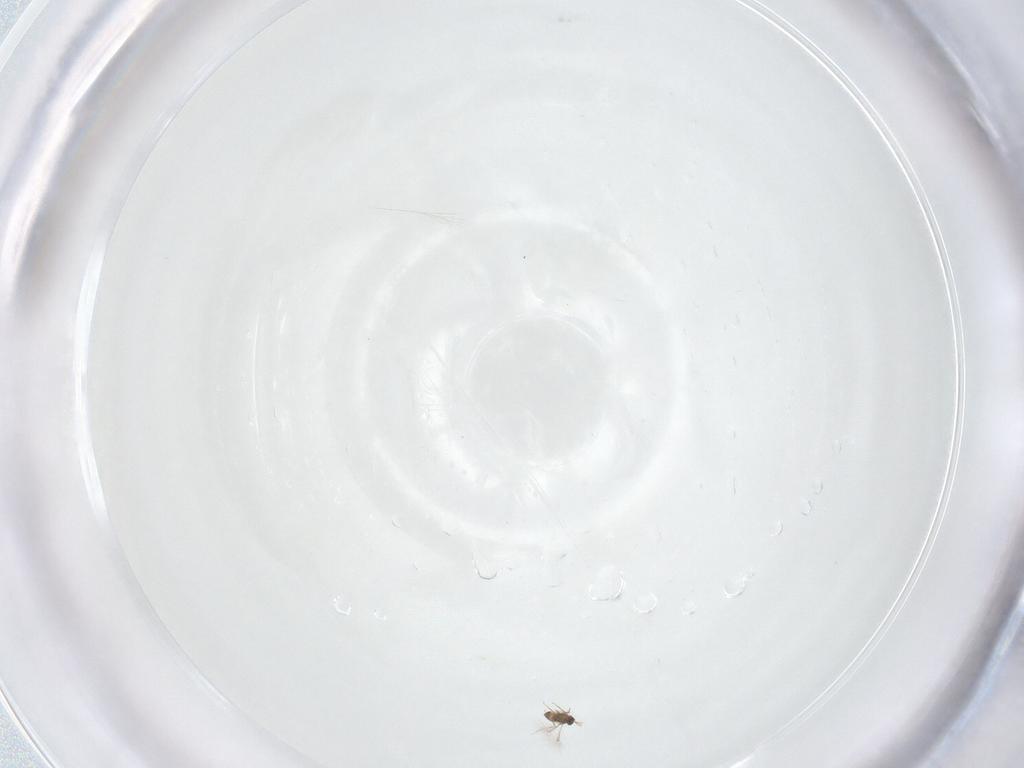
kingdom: Animalia
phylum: Arthropoda
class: Insecta
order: Hymenoptera
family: Mymaridae
